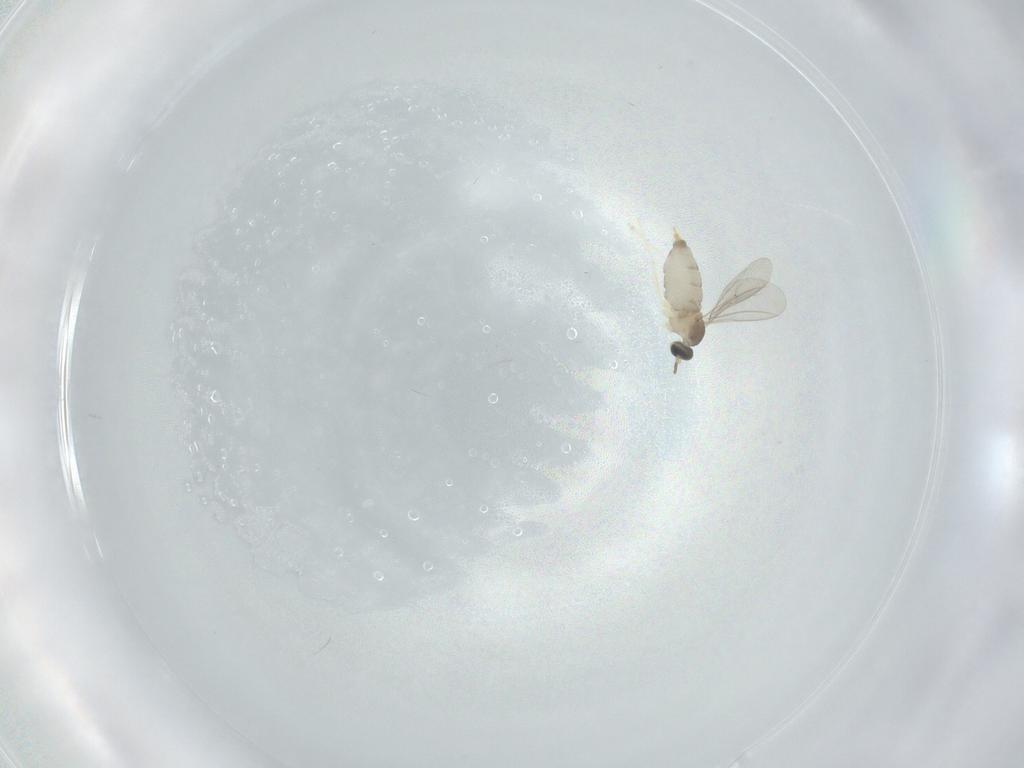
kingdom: Animalia
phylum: Arthropoda
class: Insecta
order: Diptera
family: Cecidomyiidae
